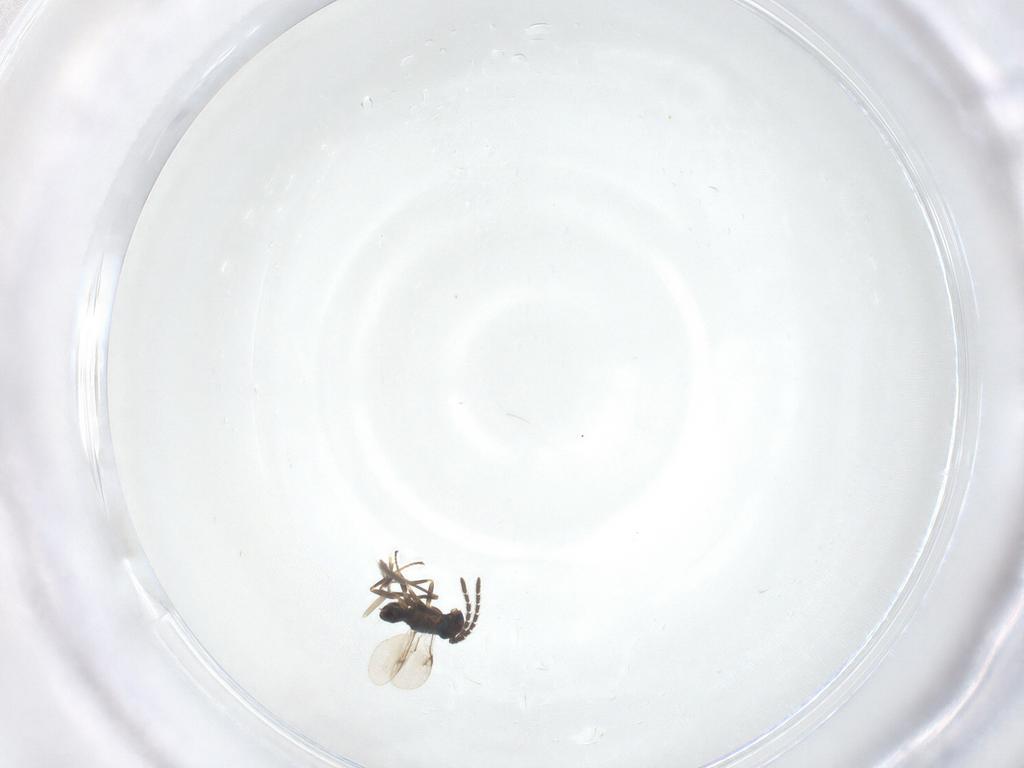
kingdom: Animalia
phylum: Arthropoda
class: Insecta
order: Hymenoptera
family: Encyrtidae
